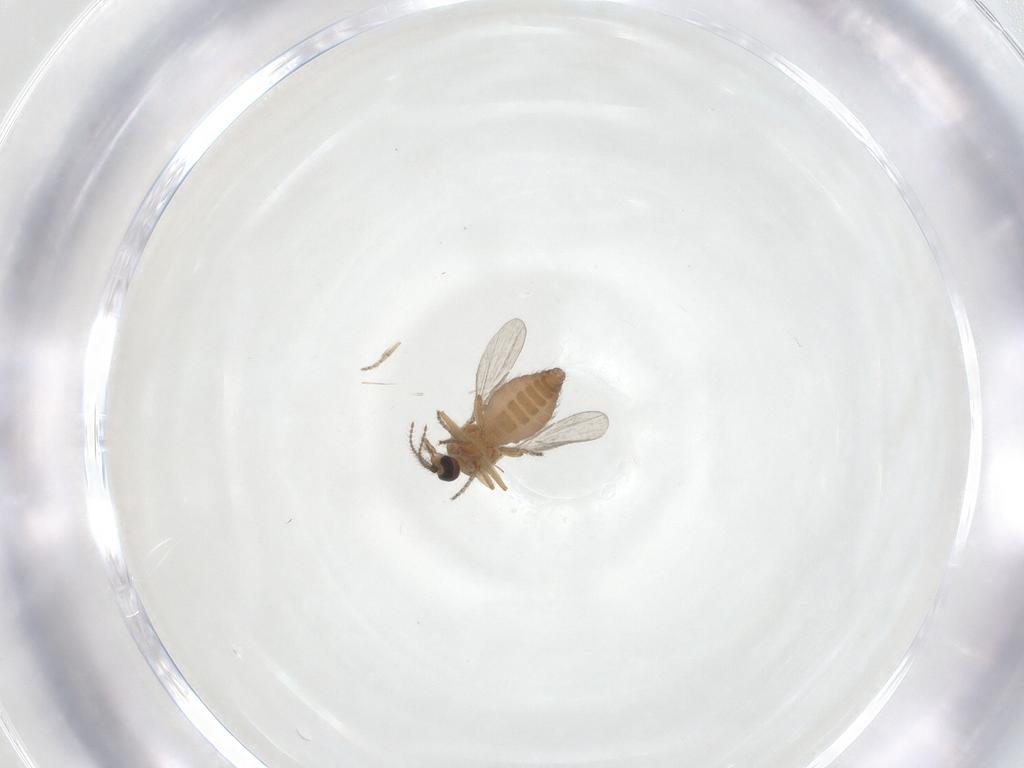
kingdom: Animalia
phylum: Arthropoda
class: Insecta
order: Diptera
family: Ceratopogonidae
